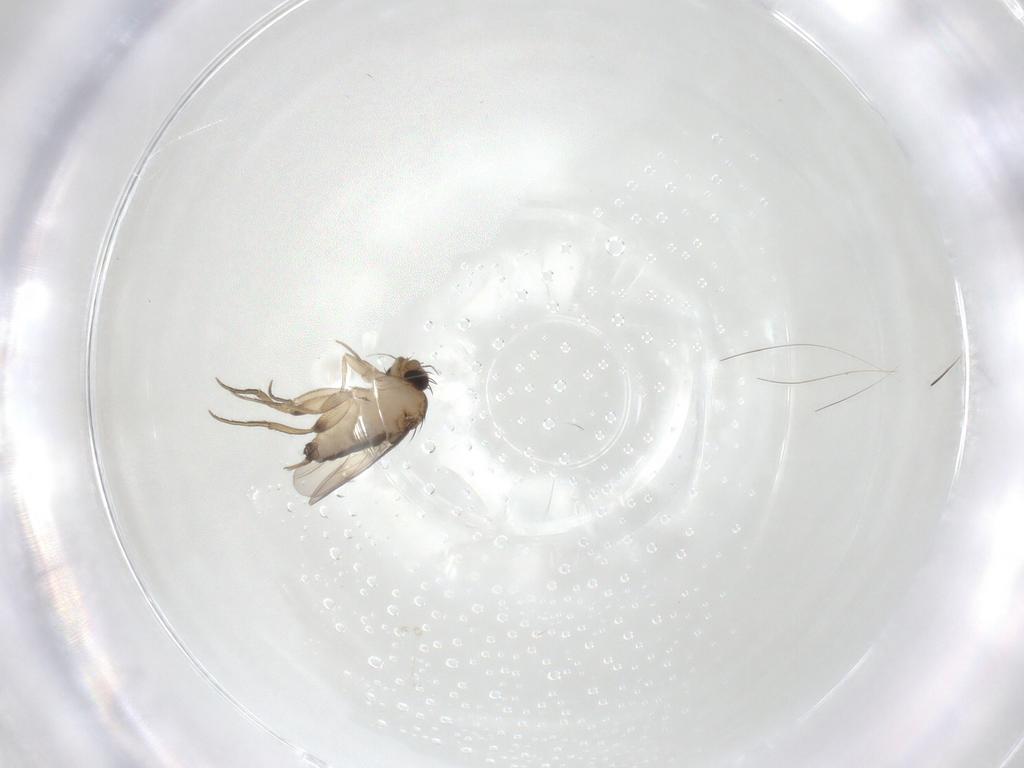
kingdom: Animalia
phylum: Arthropoda
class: Insecta
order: Diptera
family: Phoridae
